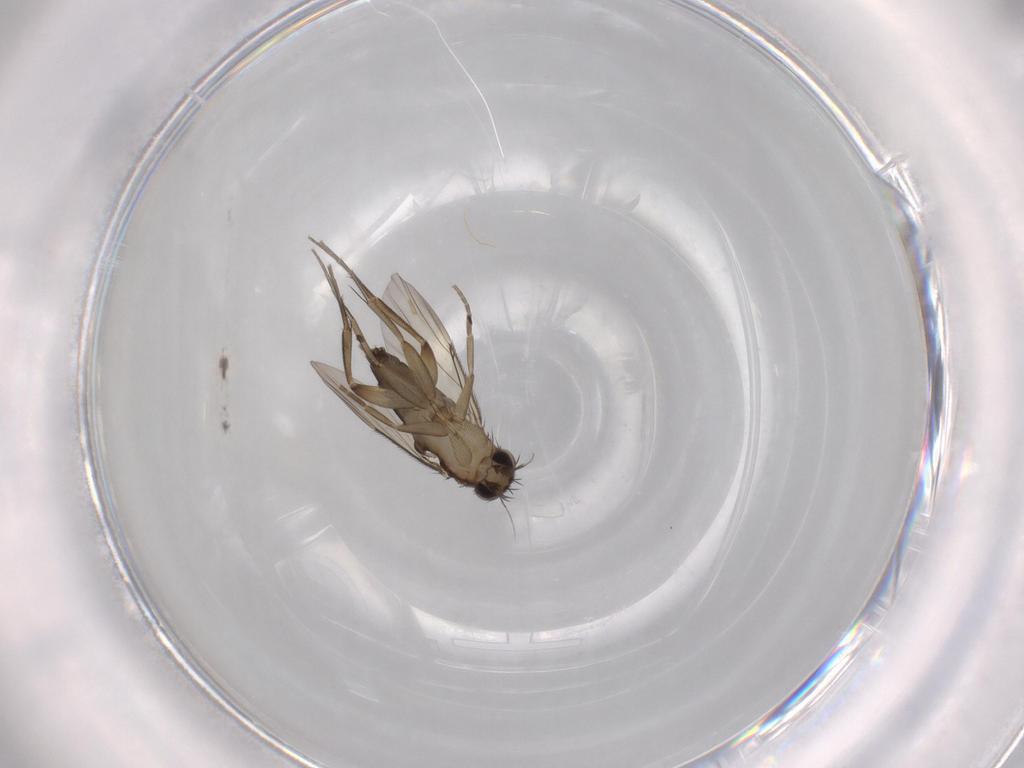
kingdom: Animalia
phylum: Arthropoda
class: Insecta
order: Diptera
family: Phoridae
